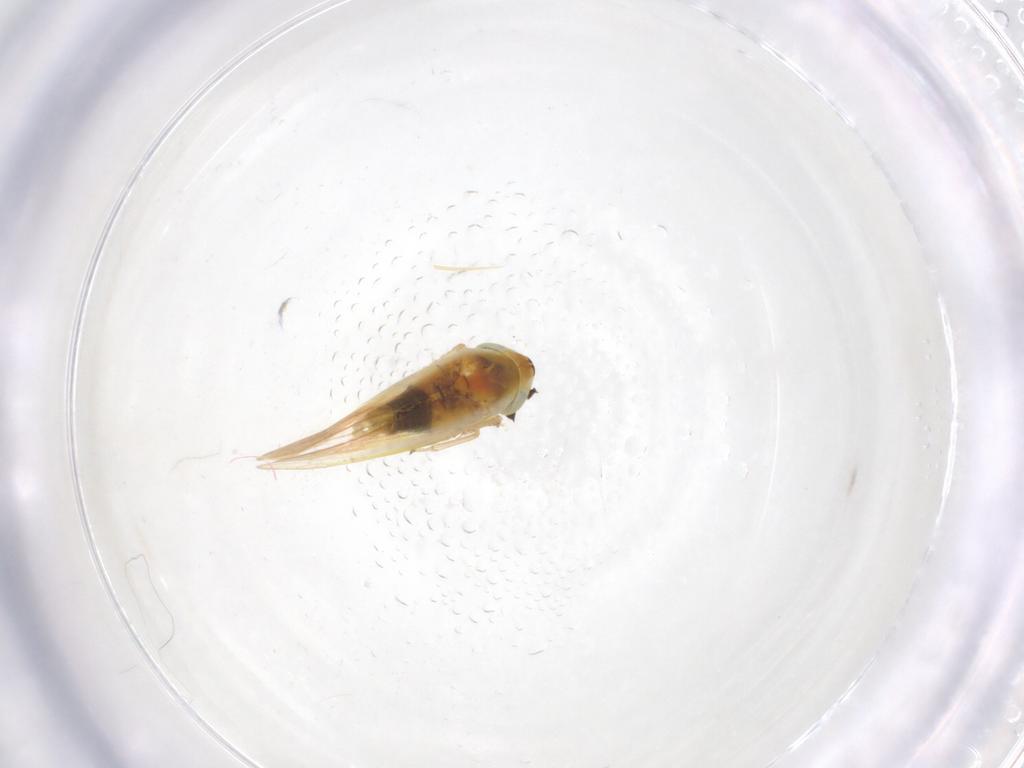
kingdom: Animalia
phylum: Arthropoda
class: Insecta
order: Hemiptera
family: Cicadellidae
